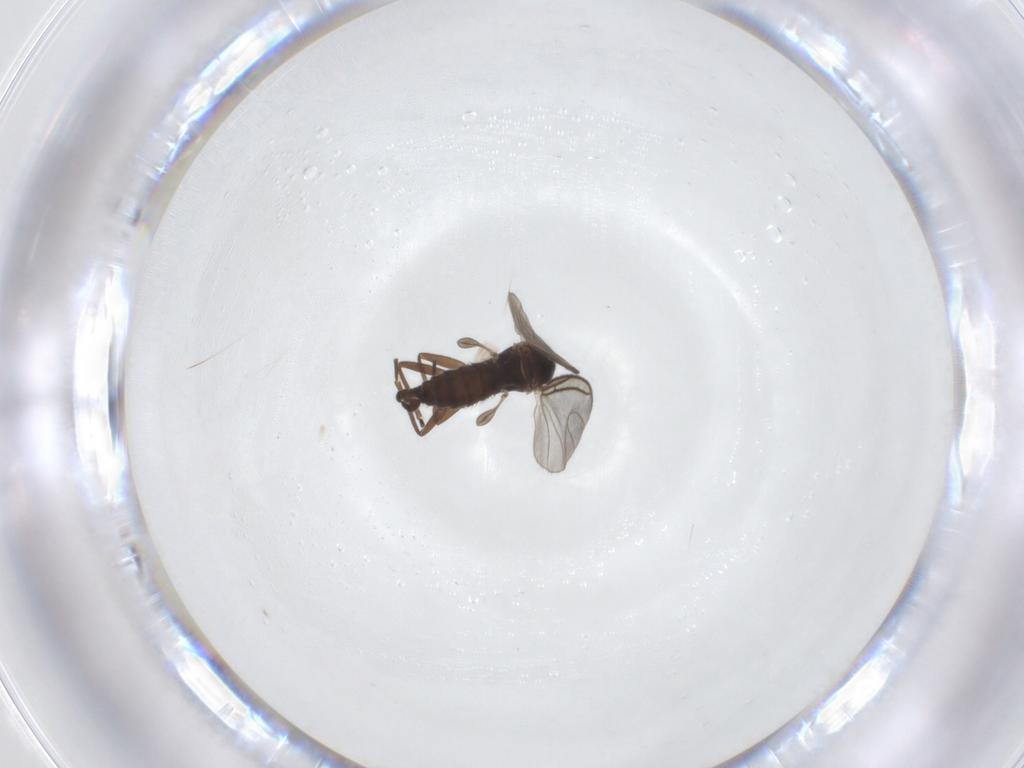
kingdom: Animalia
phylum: Arthropoda
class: Insecta
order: Diptera
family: Sciaridae
